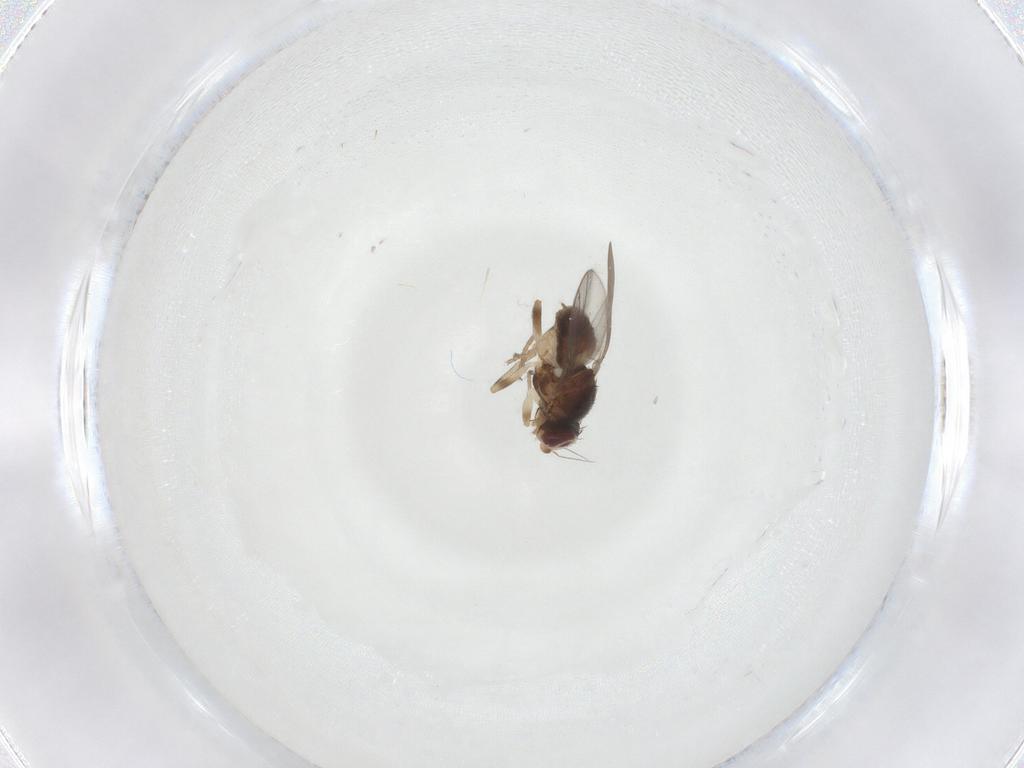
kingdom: Animalia
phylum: Arthropoda
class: Insecta
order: Diptera
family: Chloropidae
